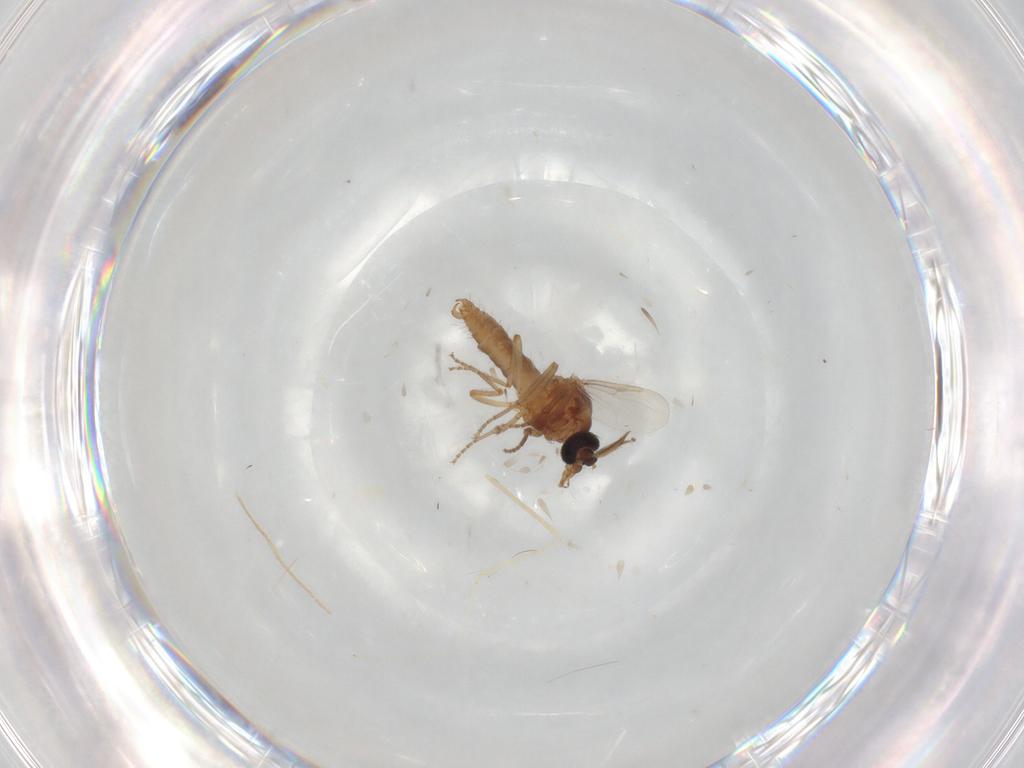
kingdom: Animalia
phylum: Arthropoda
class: Insecta
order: Diptera
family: Ceratopogonidae
